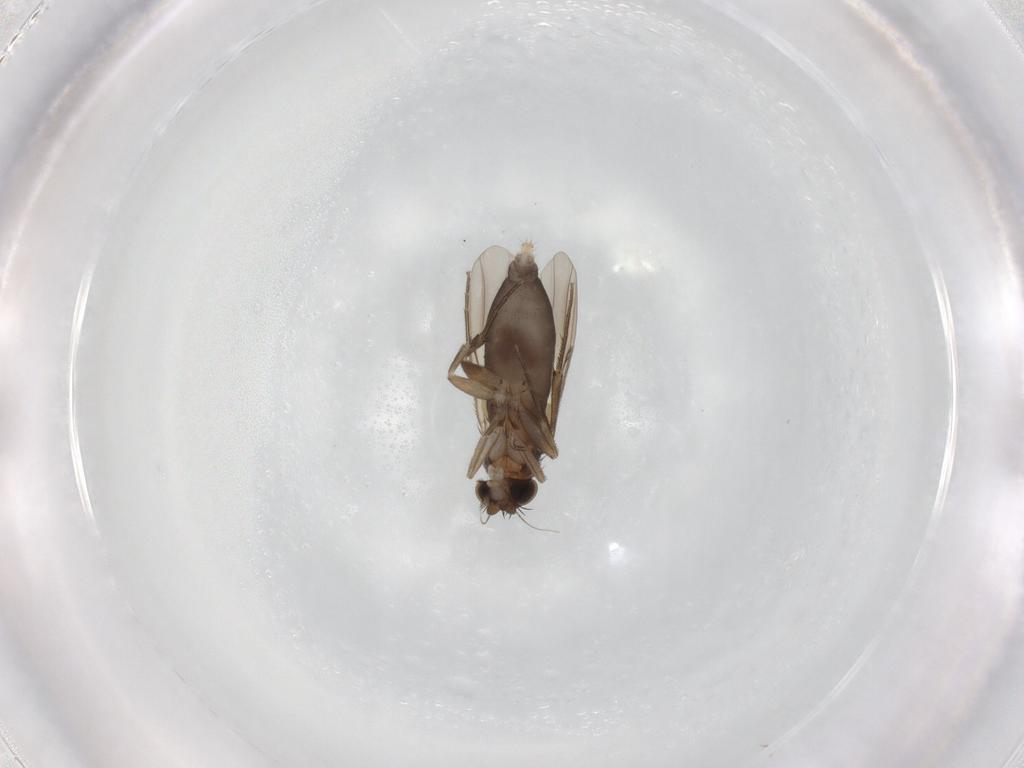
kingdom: Animalia
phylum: Arthropoda
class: Insecta
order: Diptera
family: Phoridae
